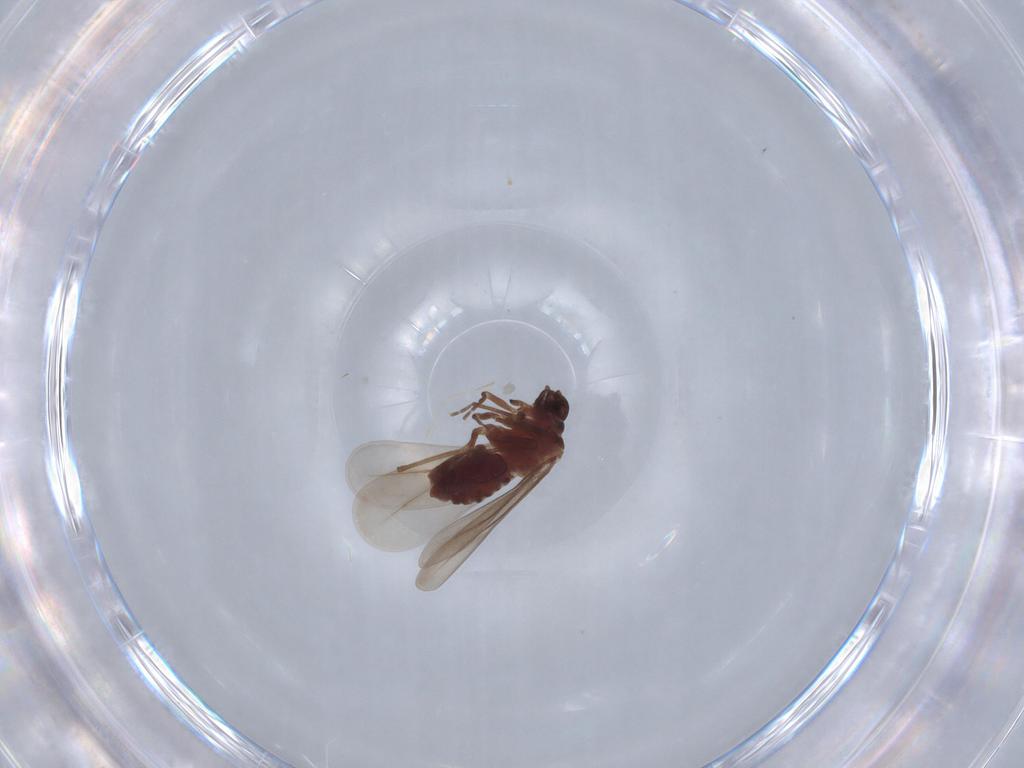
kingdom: Animalia
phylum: Arthropoda
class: Insecta
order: Hemiptera
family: Aleyrodidae
